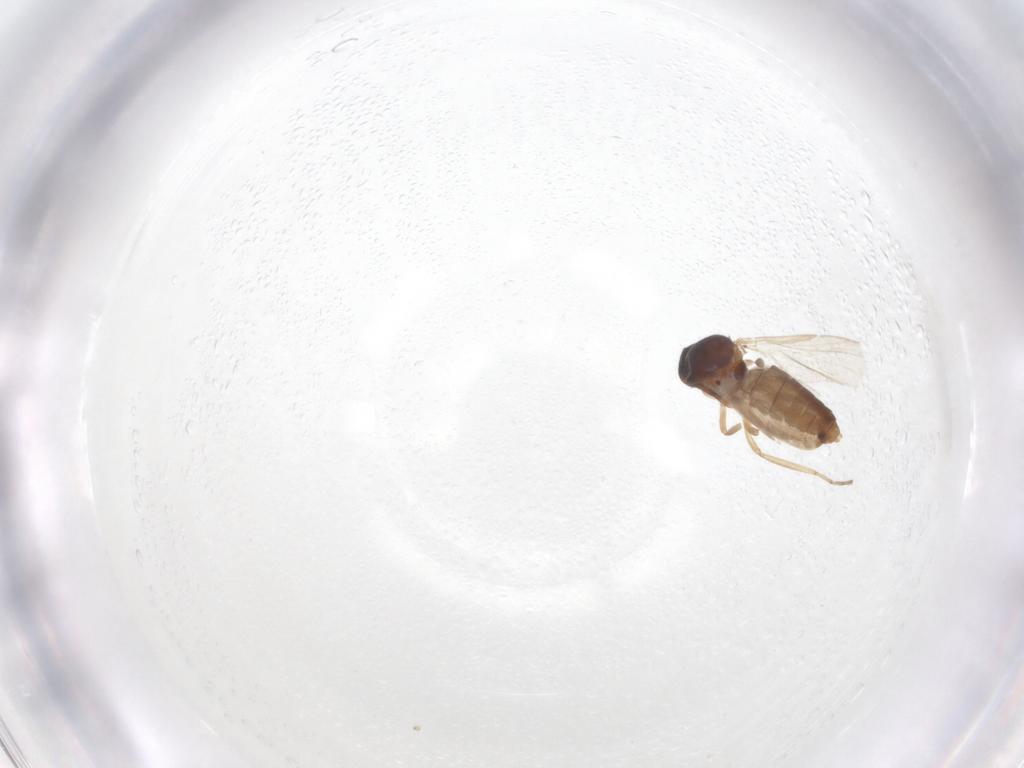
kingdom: Animalia
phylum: Arthropoda
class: Insecta
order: Diptera
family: Ceratopogonidae
